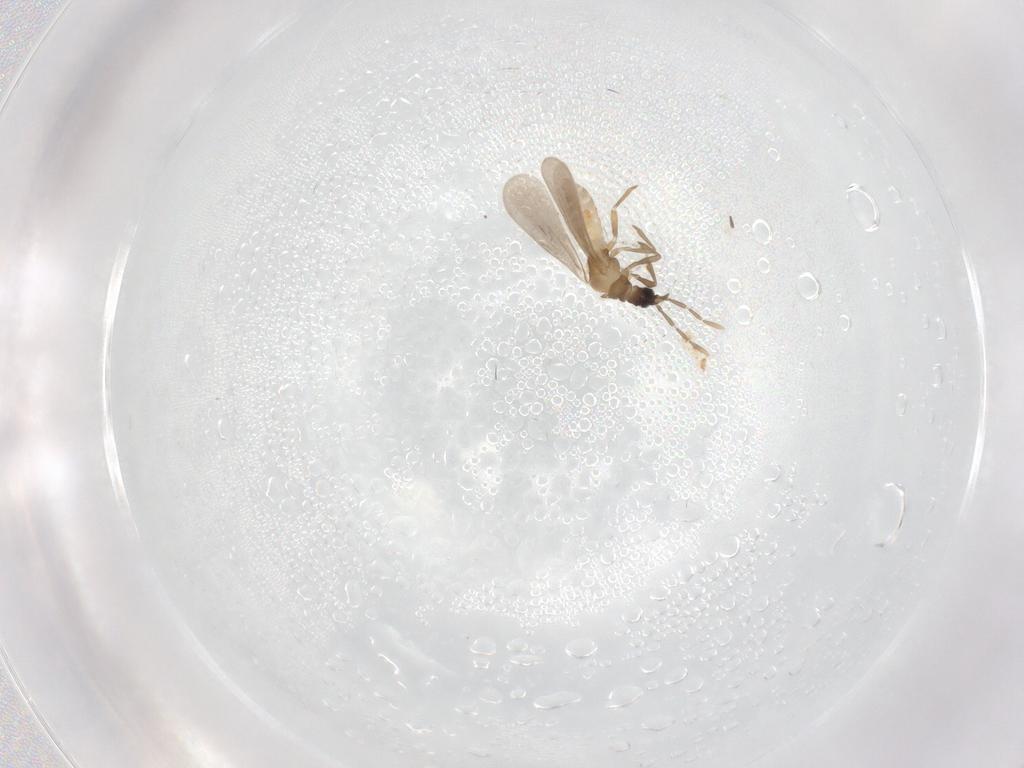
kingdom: Animalia
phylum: Arthropoda
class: Insecta
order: Hemiptera
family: Enicocephalidae
